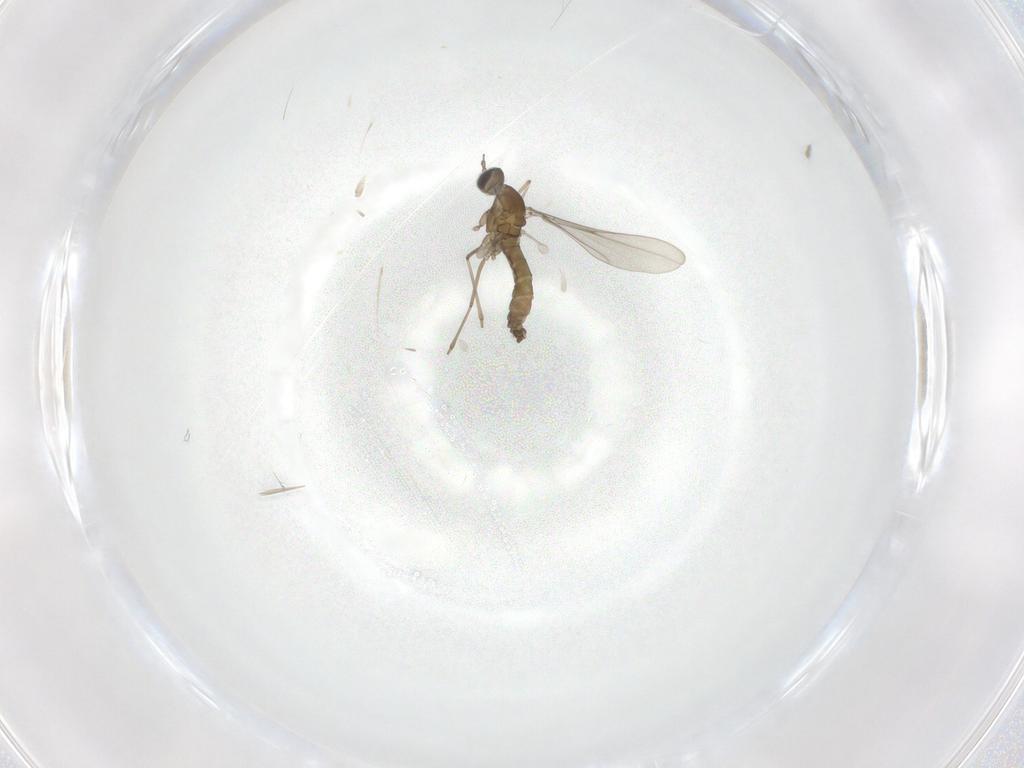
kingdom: Animalia
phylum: Arthropoda
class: Insecta
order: Diptera
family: Cecidomyiidae
